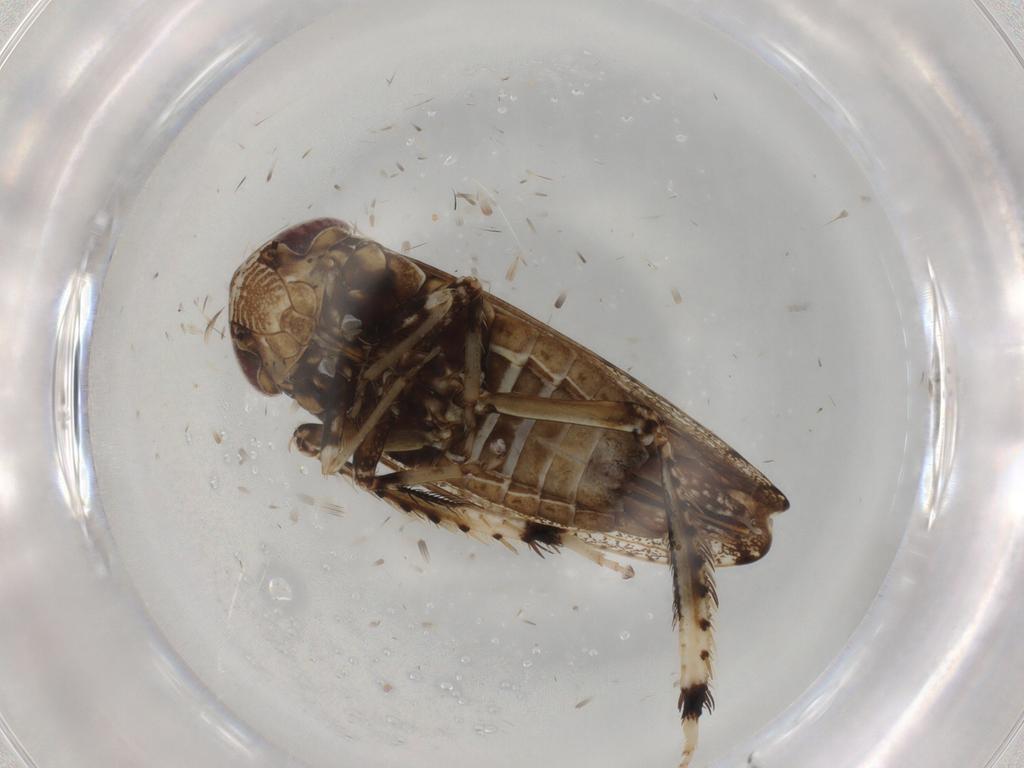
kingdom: Animalia
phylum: Arthropoda
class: Insecta
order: Hemiptera
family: Cicadellidae
